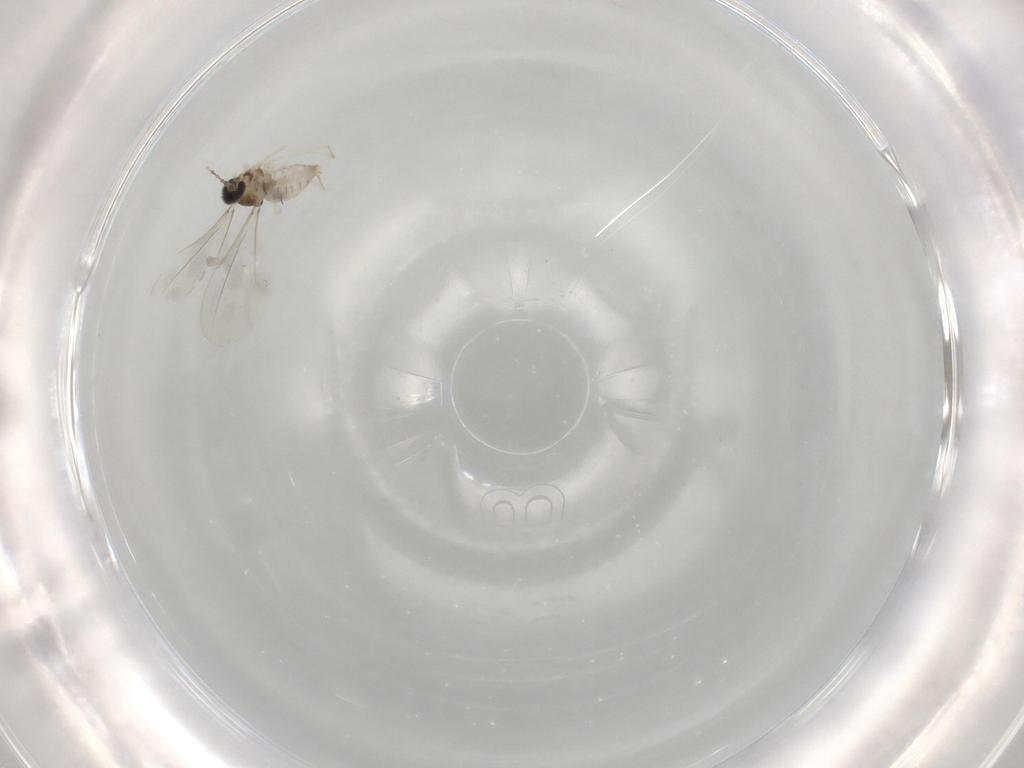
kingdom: Animalia
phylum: Arthropoda
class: Insecta
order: Diptera
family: Cecidomyiidae
